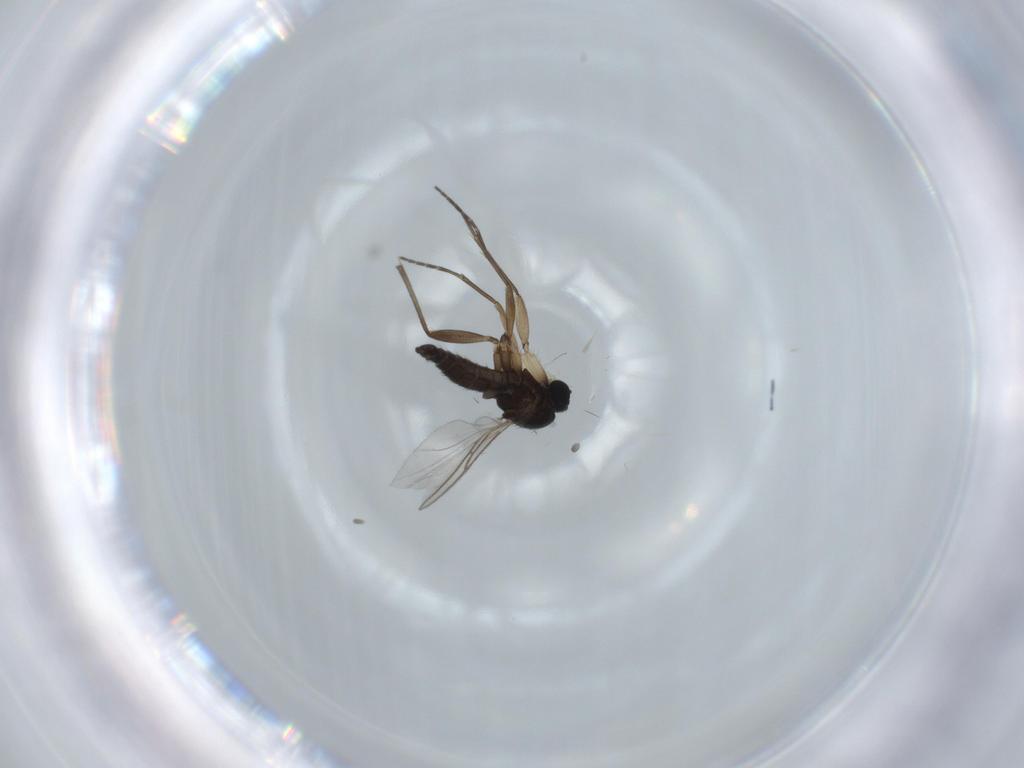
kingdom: Animalia
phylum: Arthropoda
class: Insecta
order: Diptera
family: Sciaridae
